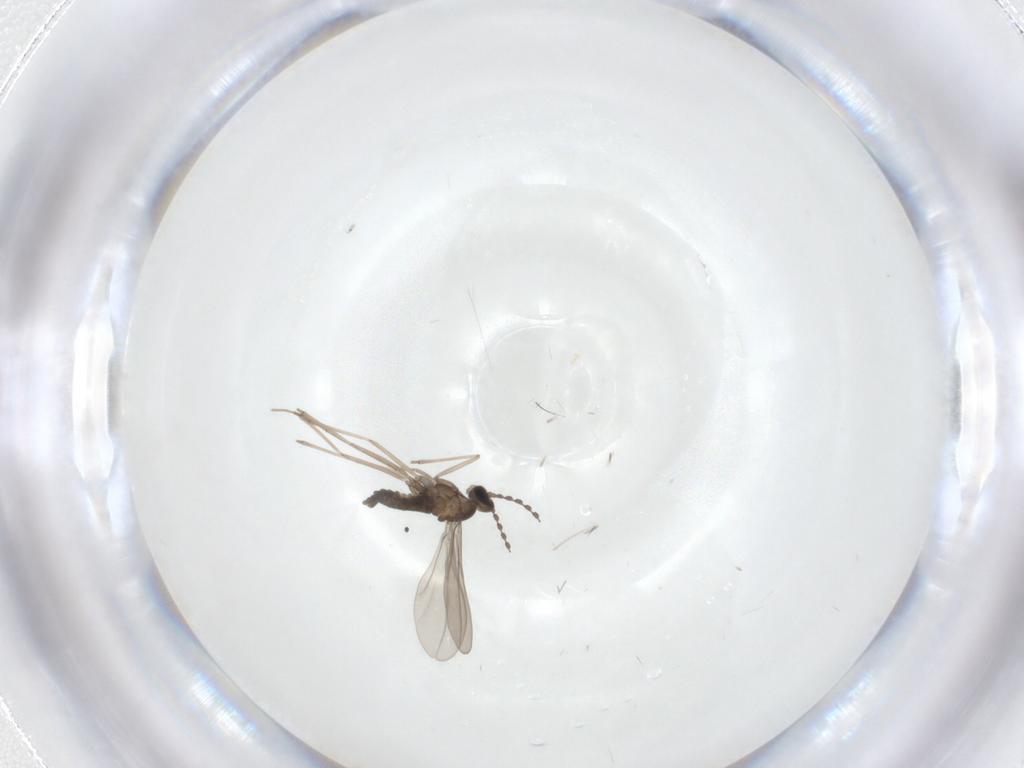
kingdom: Animalia
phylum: Arthropoda
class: Insecta
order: Diptera
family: Cecidomyiidae
